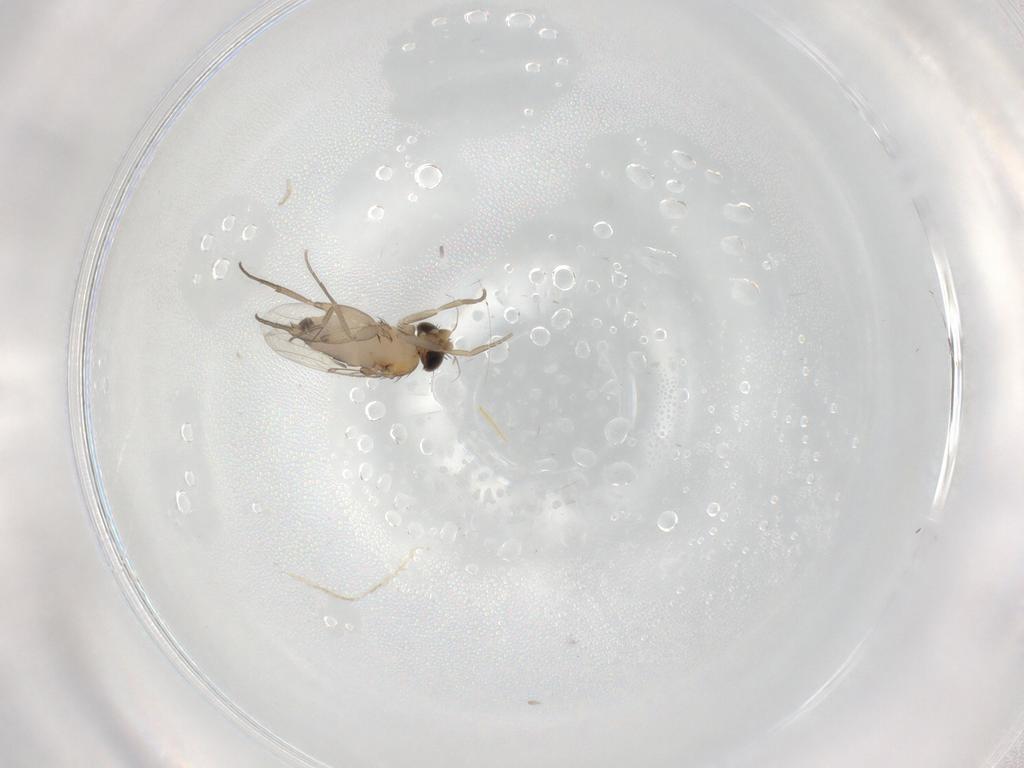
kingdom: Animalia
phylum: Arthropoda
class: Insecta
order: Diptera
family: Cecidomyiidae
